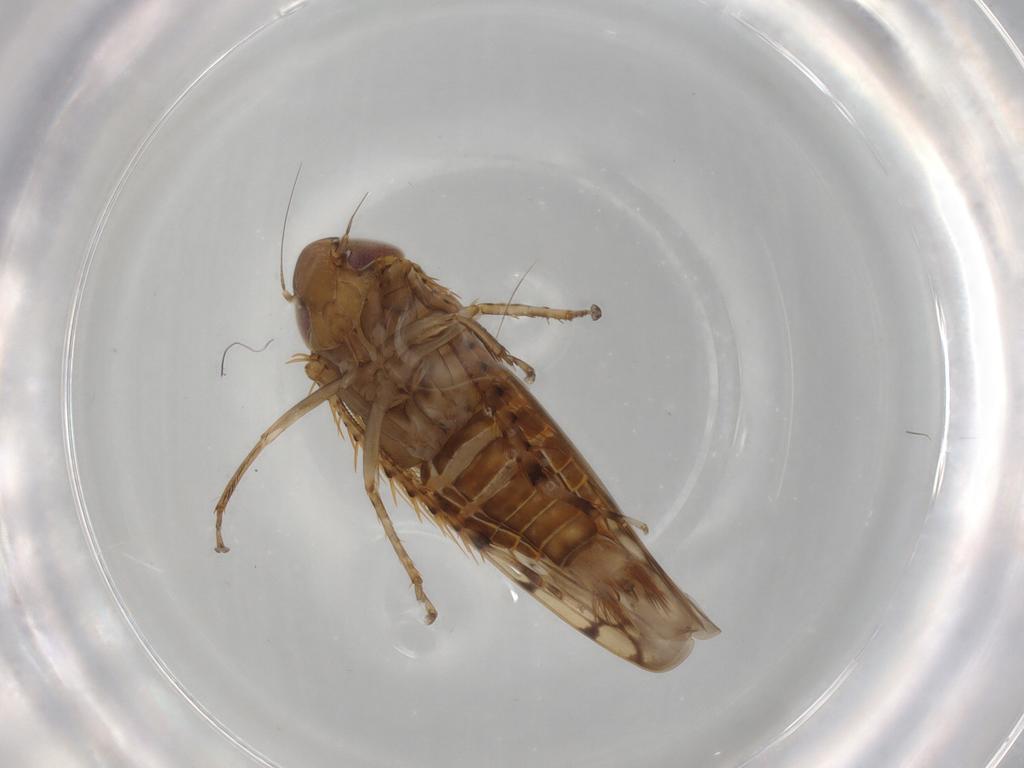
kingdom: Animalia
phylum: Arthropoda
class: Insecta
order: Hemiptera
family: Cicadellidae
